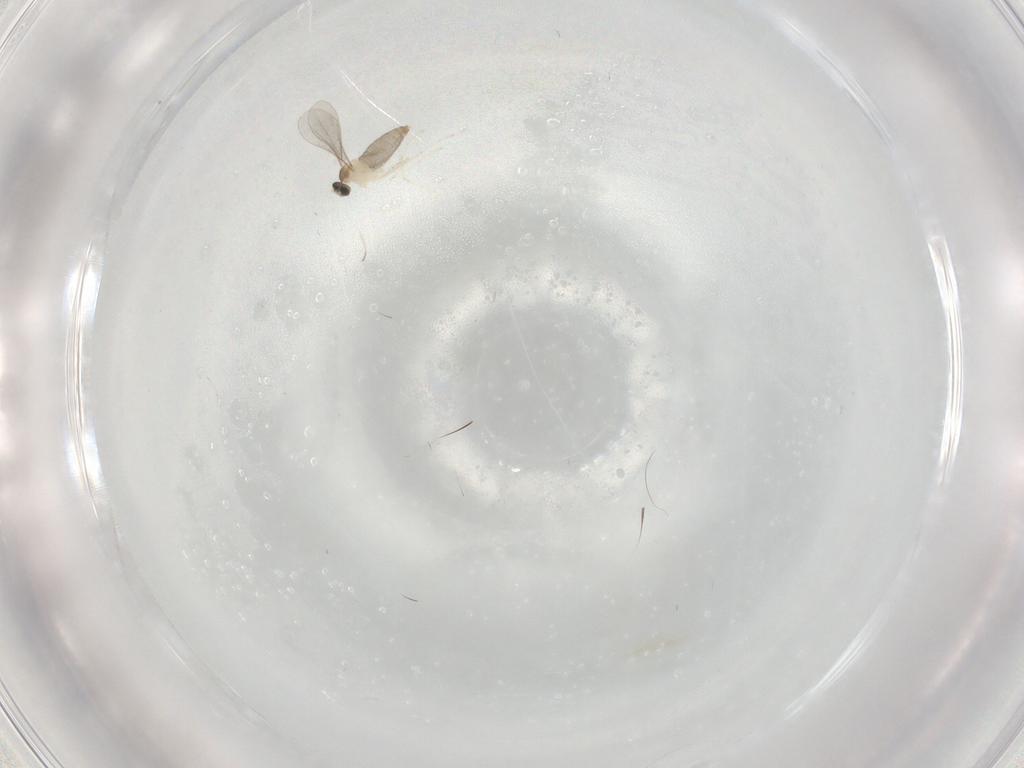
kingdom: Animalia
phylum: Arthropoda
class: Insecta
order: Diptera
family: Cecidomyiidae
